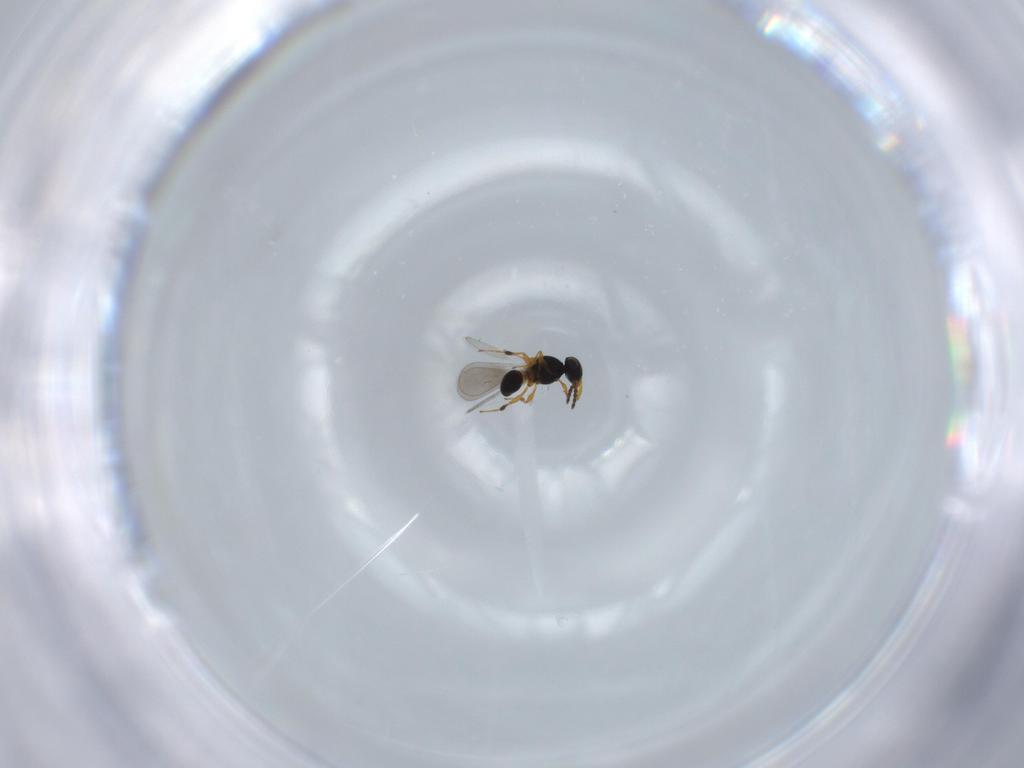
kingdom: Animalia
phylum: Arthropoda
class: Insecta
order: Hymenoptera
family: Platygastridae
